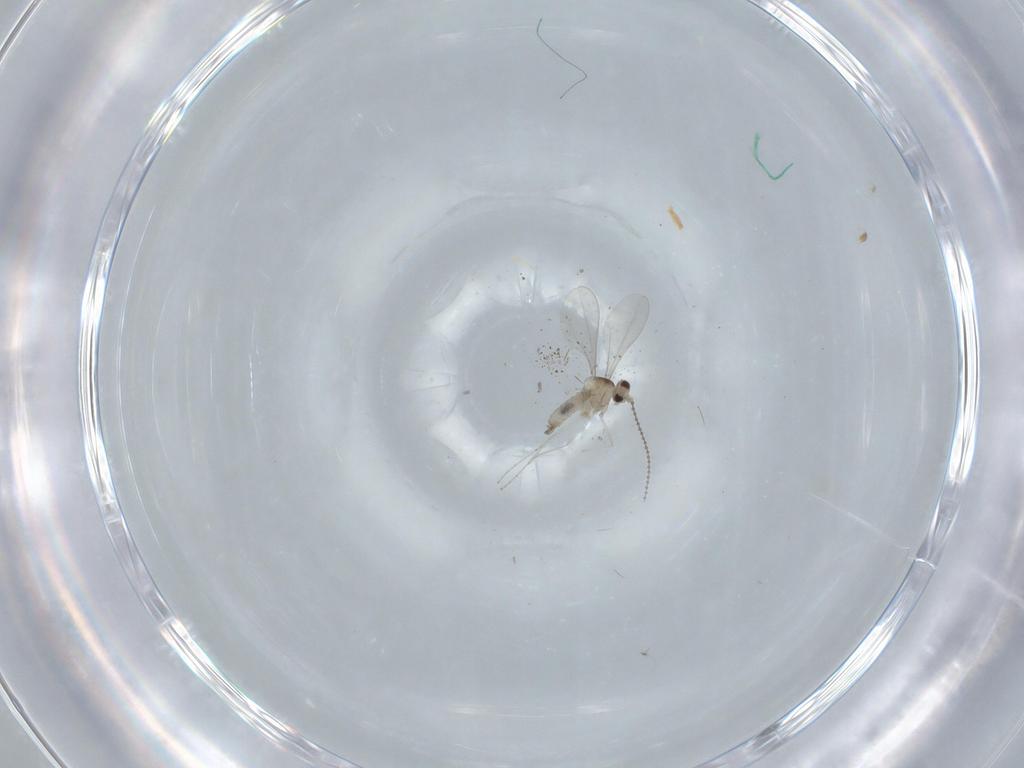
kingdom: Animalia
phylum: Arthropoda
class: Insecta
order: Diptera
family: Cecidomyiidae
